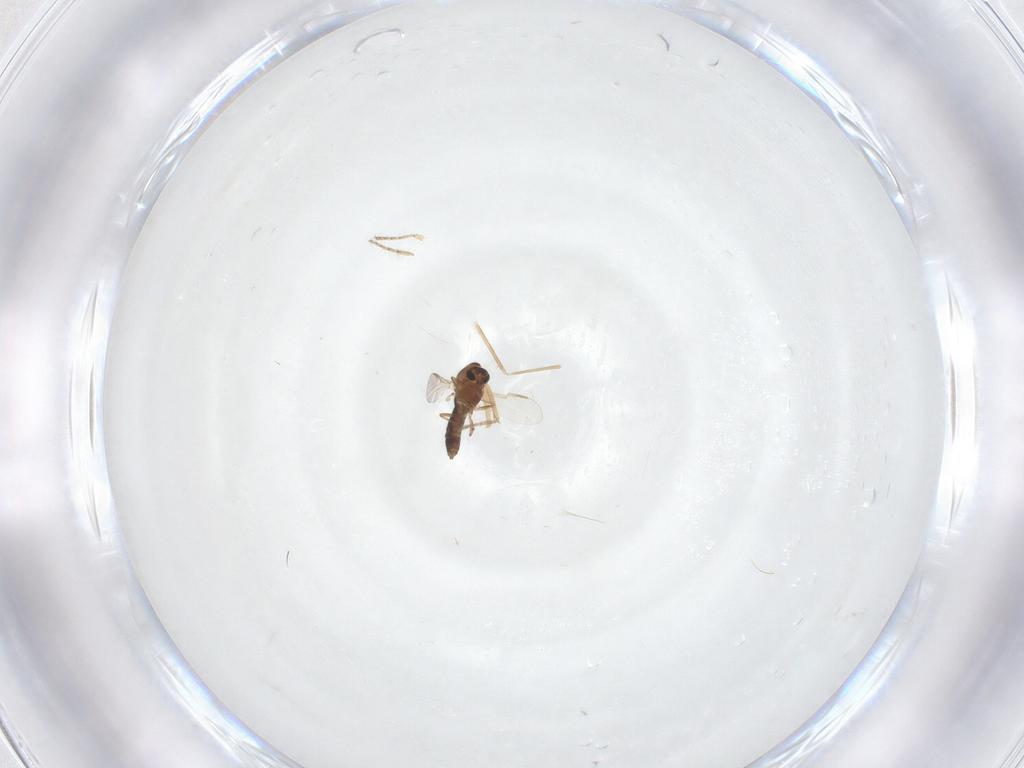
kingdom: Animalia
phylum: Arthropoda
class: Insecta
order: Diptera
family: Chironomidae
